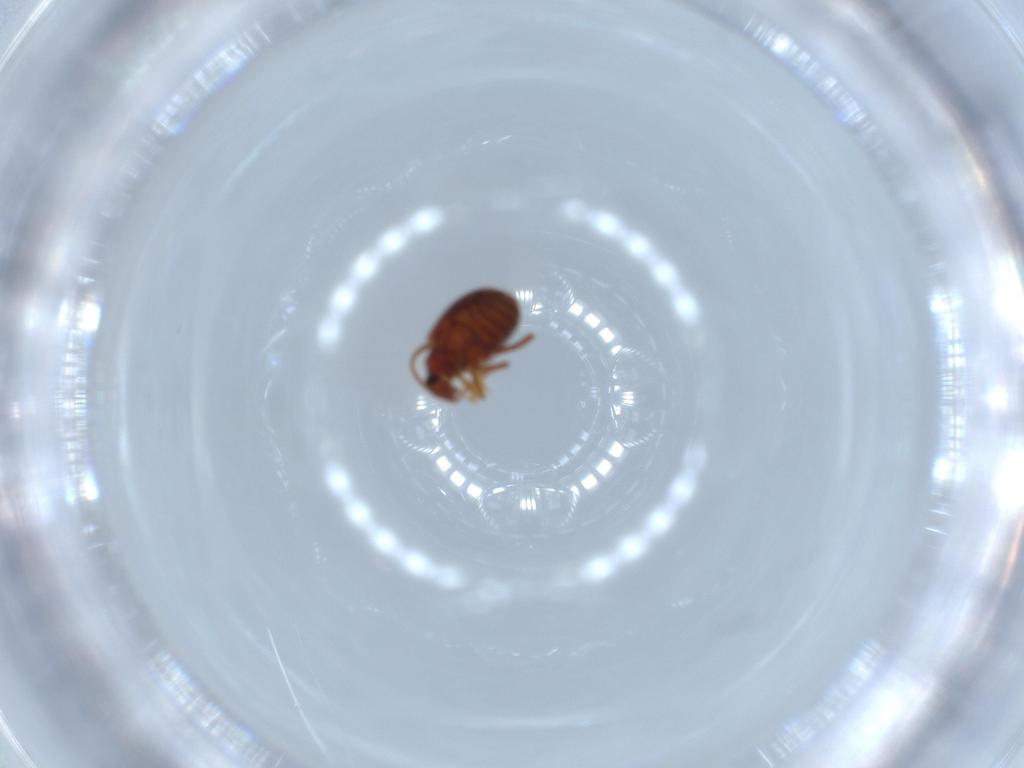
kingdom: Animalia
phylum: Arthropoda
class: Insecta
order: Coleoptera
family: Aderidae
